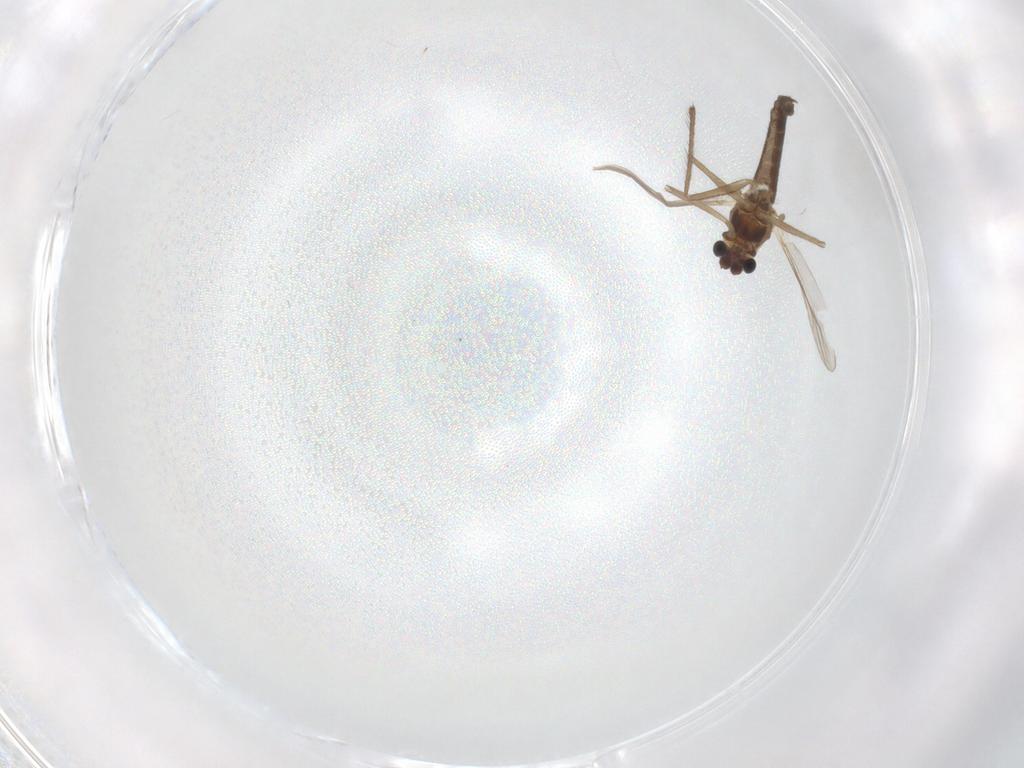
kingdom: Animalia
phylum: Arthropoda
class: Insecta
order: Diptera
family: Chironomidae
